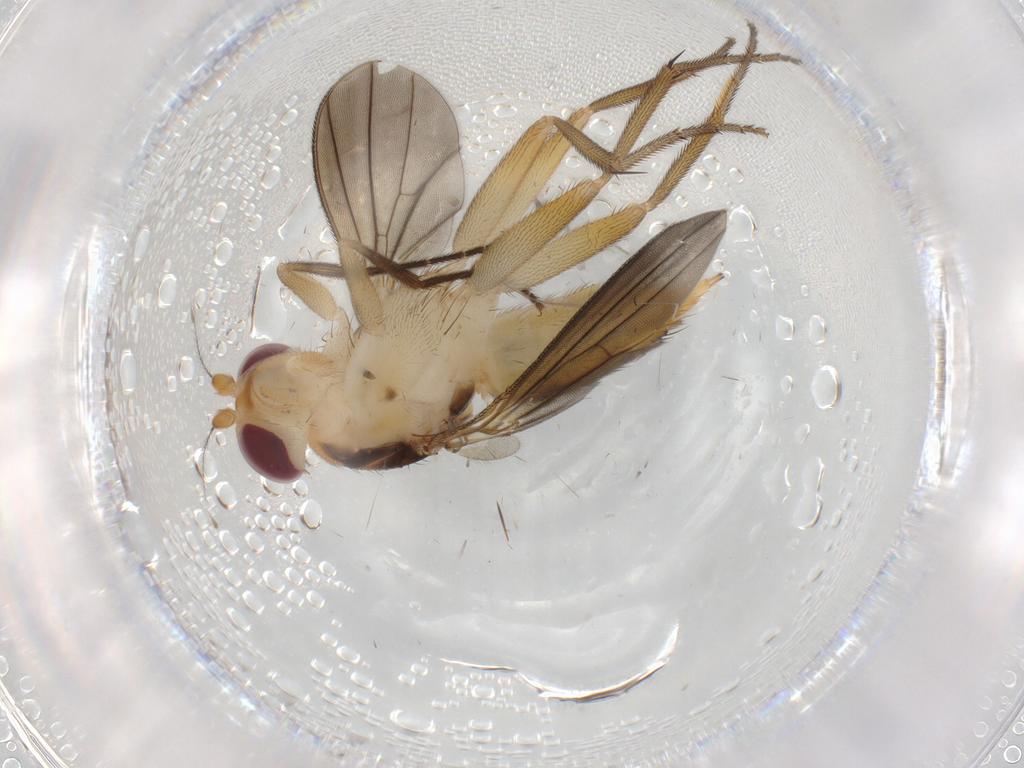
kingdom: Animalia
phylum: Arthropoda
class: Insecta
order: Diptera
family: Clusiidae
